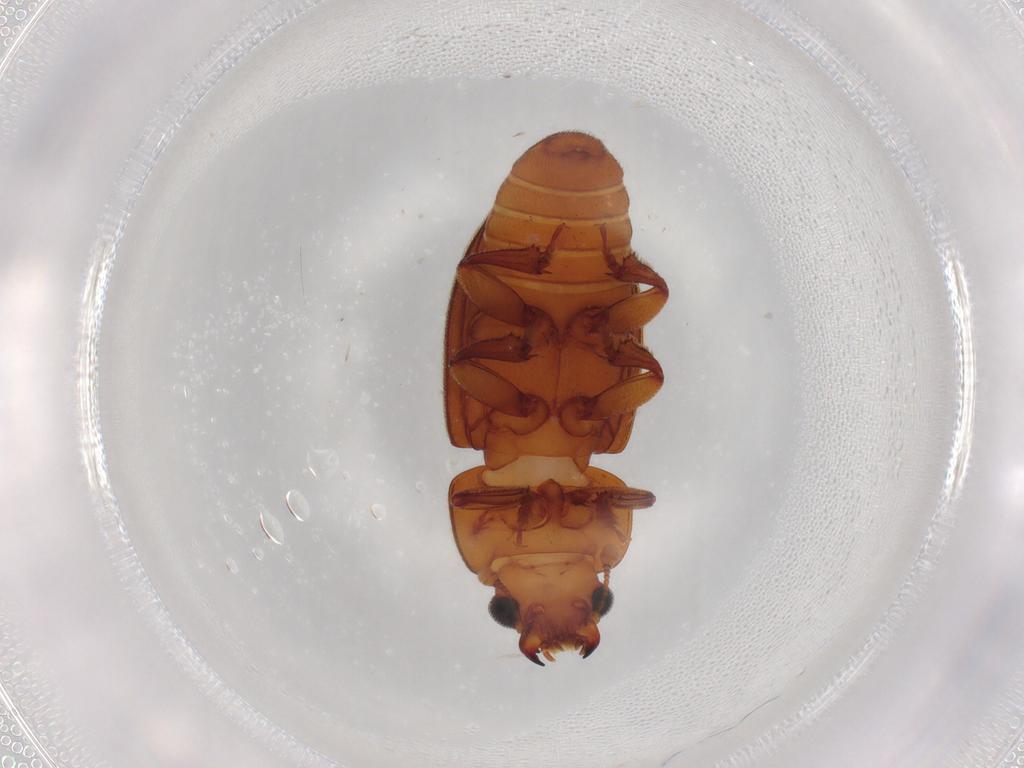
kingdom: Animalia
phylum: Arthropoda
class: Insecta
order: Coleoptera
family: Nitidulidae
